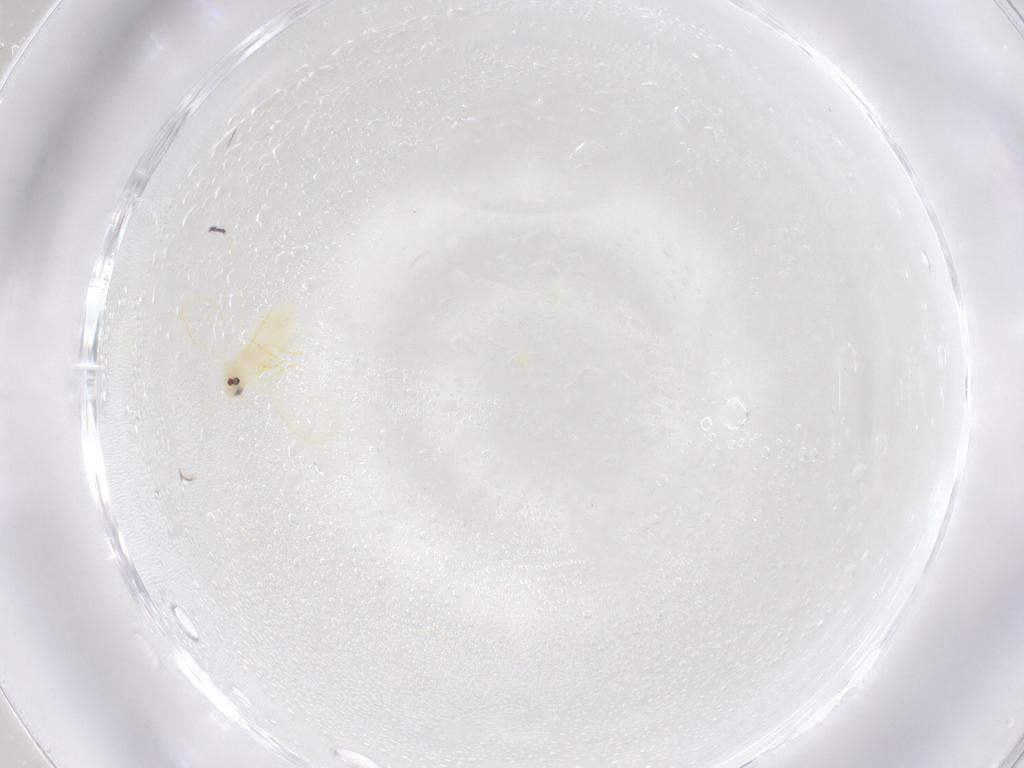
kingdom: Animalia
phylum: Arthropoda
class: Insecta
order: Hemiptera
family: Aleyrodidae
